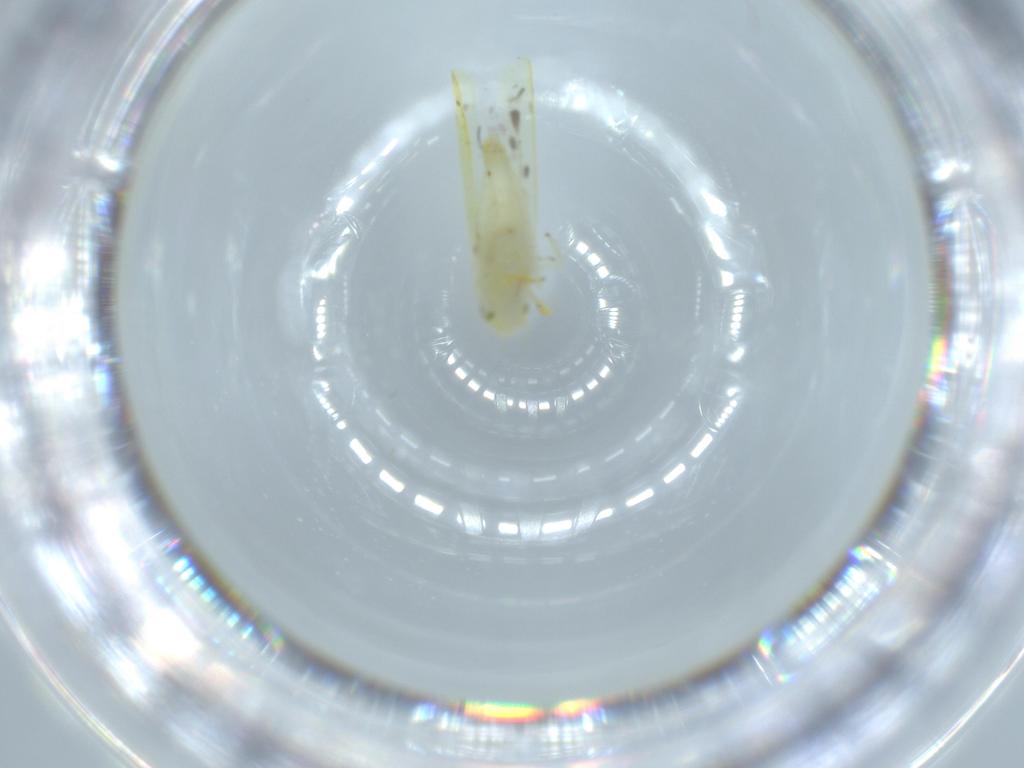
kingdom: Animalia
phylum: Arthropoda
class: Insecta
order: Hemiptera
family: Cicadellidae
